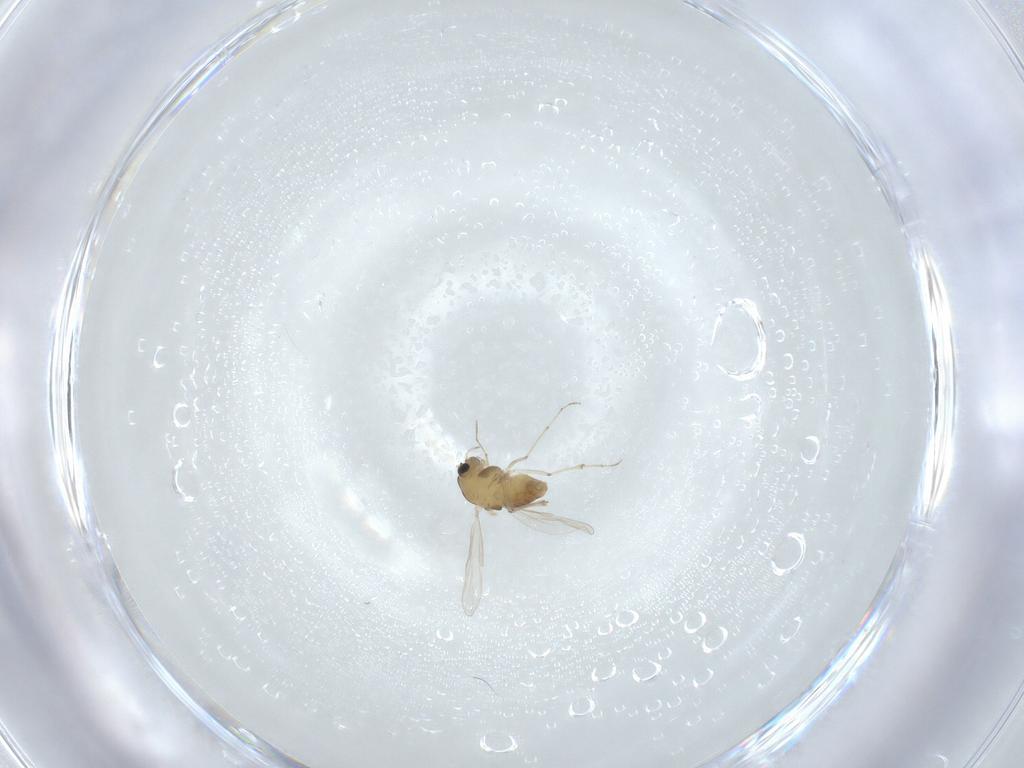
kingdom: Animalia
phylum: Arthropoda
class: Insecta
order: Diptera
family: Chironomidae
